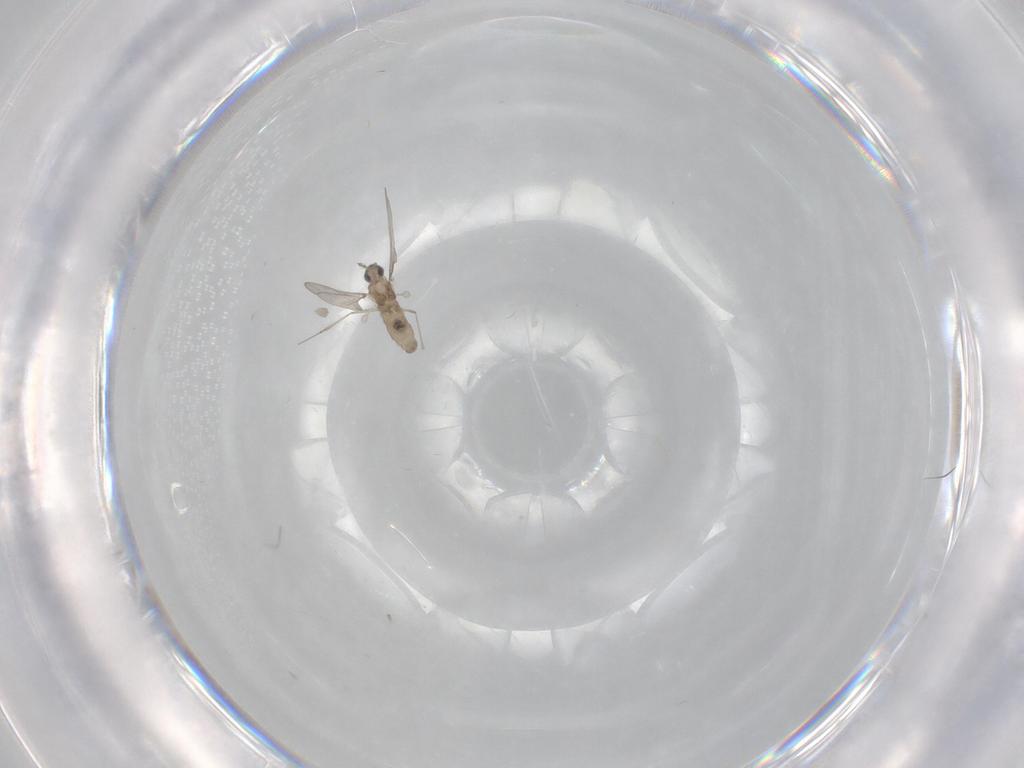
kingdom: Animalia
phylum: Arthropoda
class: Insecta
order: Diptera
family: Cecidomyiidae
